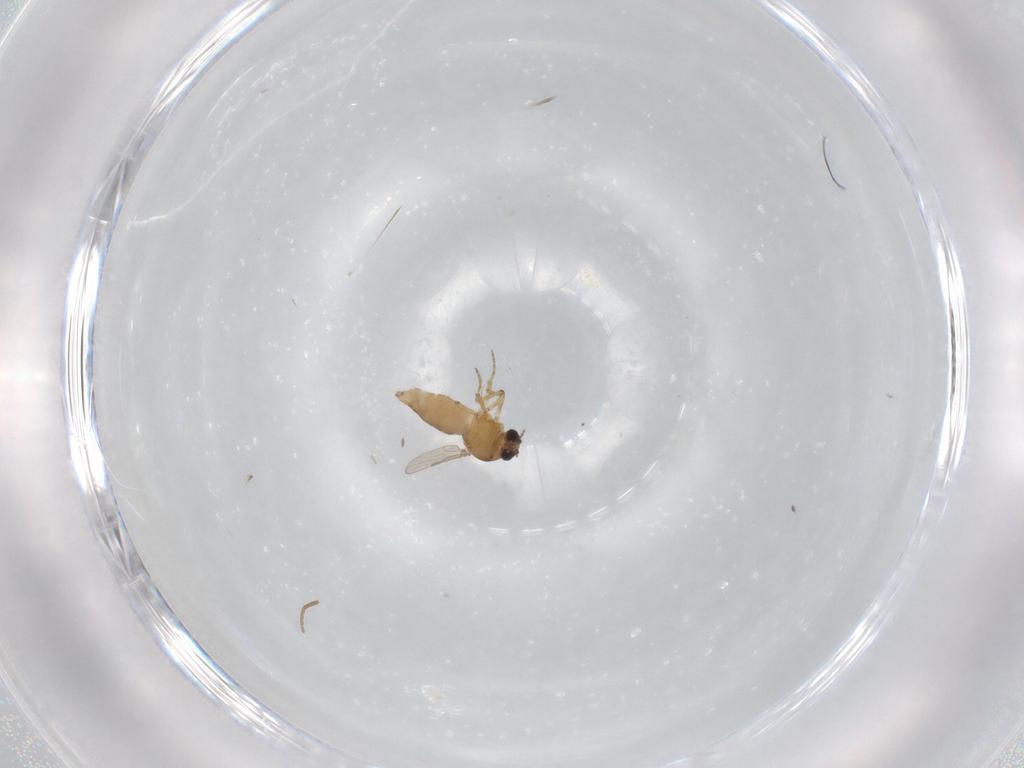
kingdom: Animalia
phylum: Arthropoda
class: Insecta
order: Diptera
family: Ceratopogonidae
